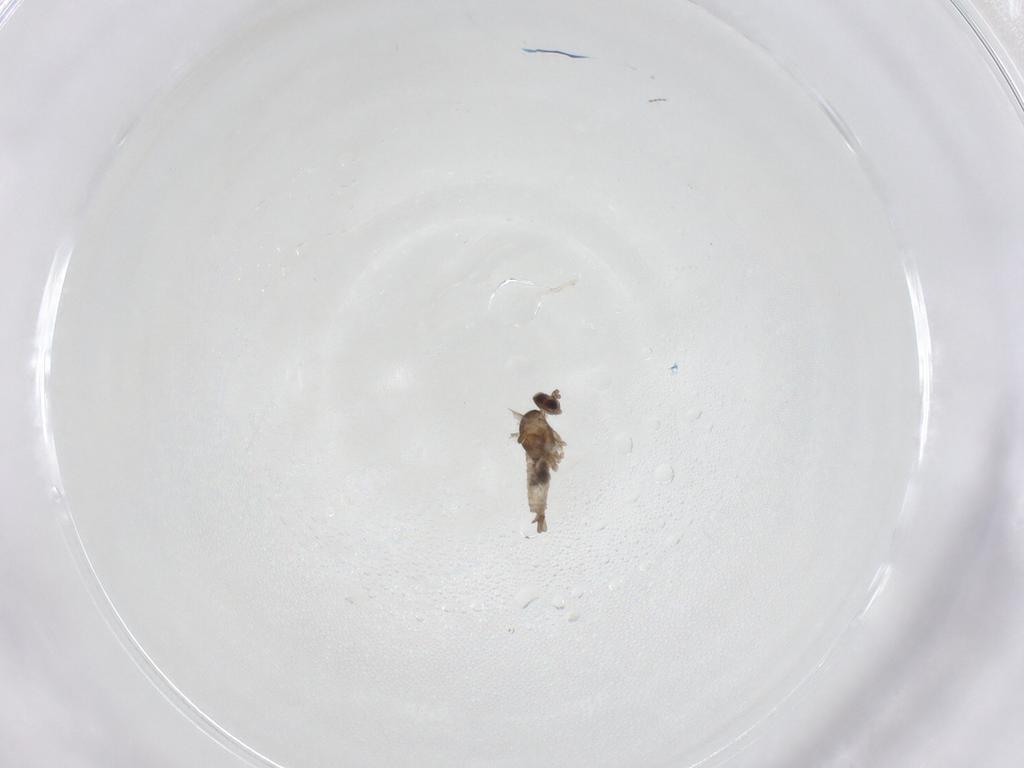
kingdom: Animalia
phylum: Arthropoda
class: Insecta
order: Diptera
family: Cecidomyiidae
